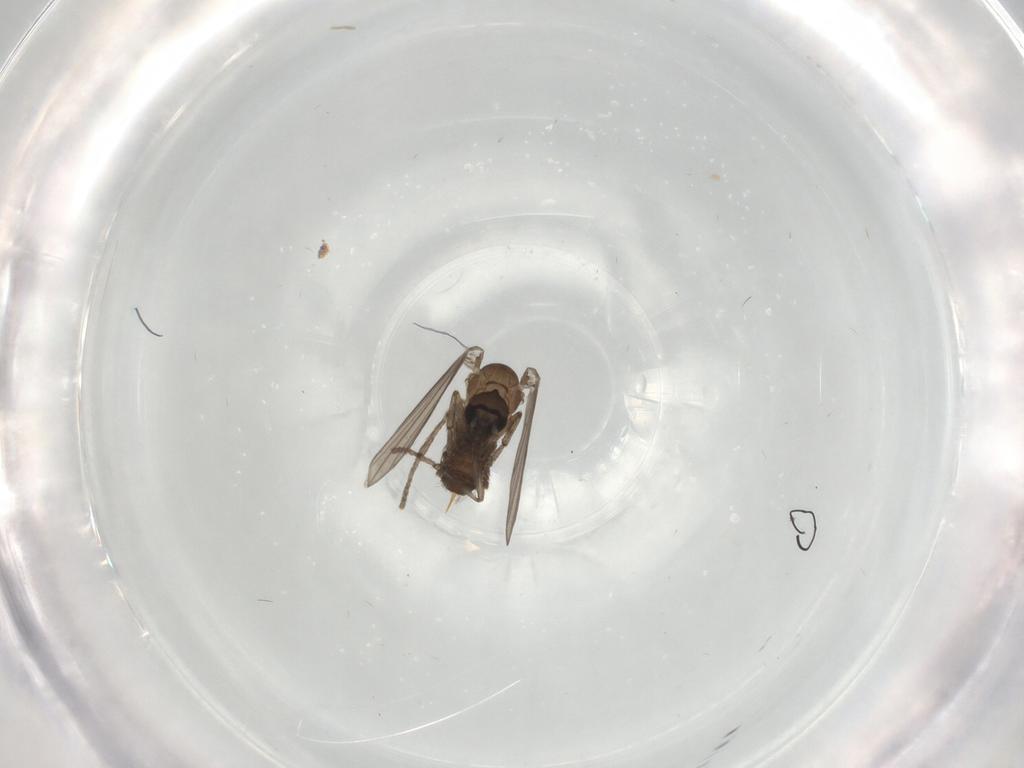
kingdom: Animalia
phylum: Arthropoda
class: Insecta
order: Diptera
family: Psychodidae
